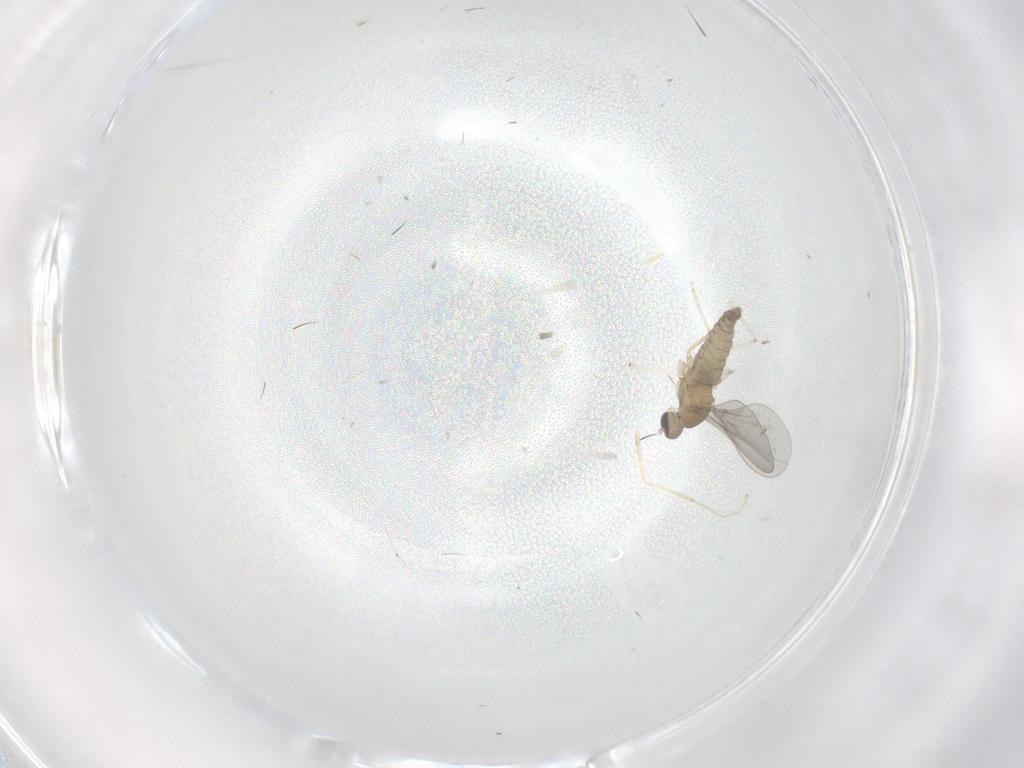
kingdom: Animalia
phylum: Arthropoda
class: Insecta
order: Diptera
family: Cecidomyiidae
